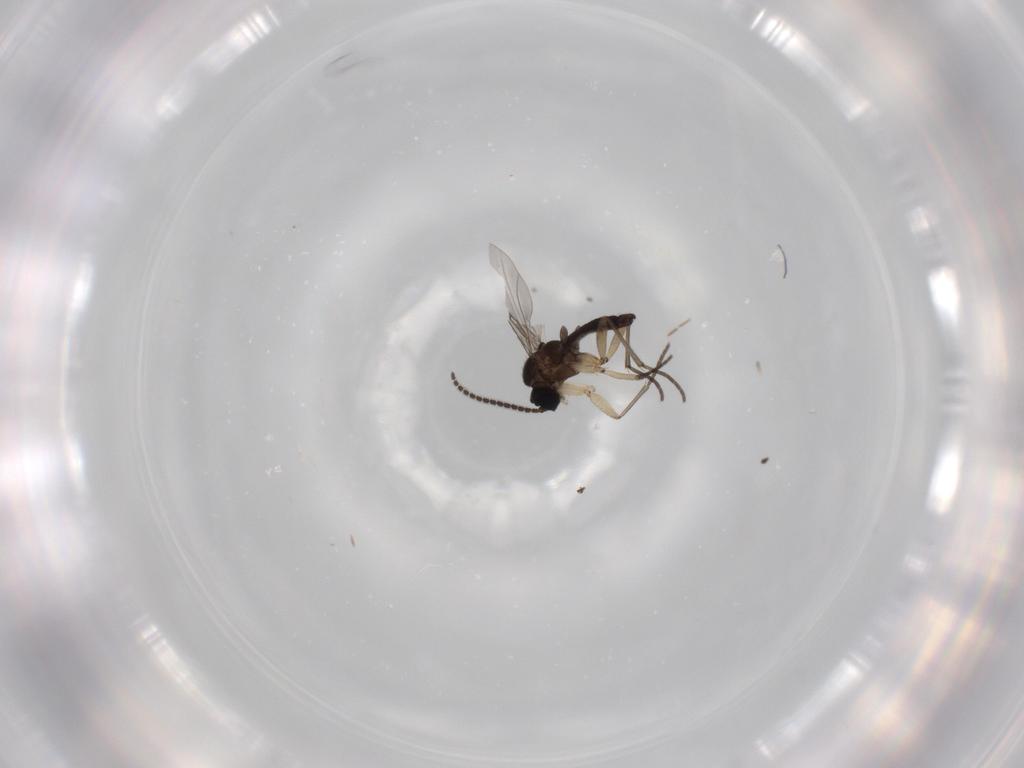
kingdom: Animalia
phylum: Arthropoda
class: Insecta
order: Diptera
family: Sciaridae
